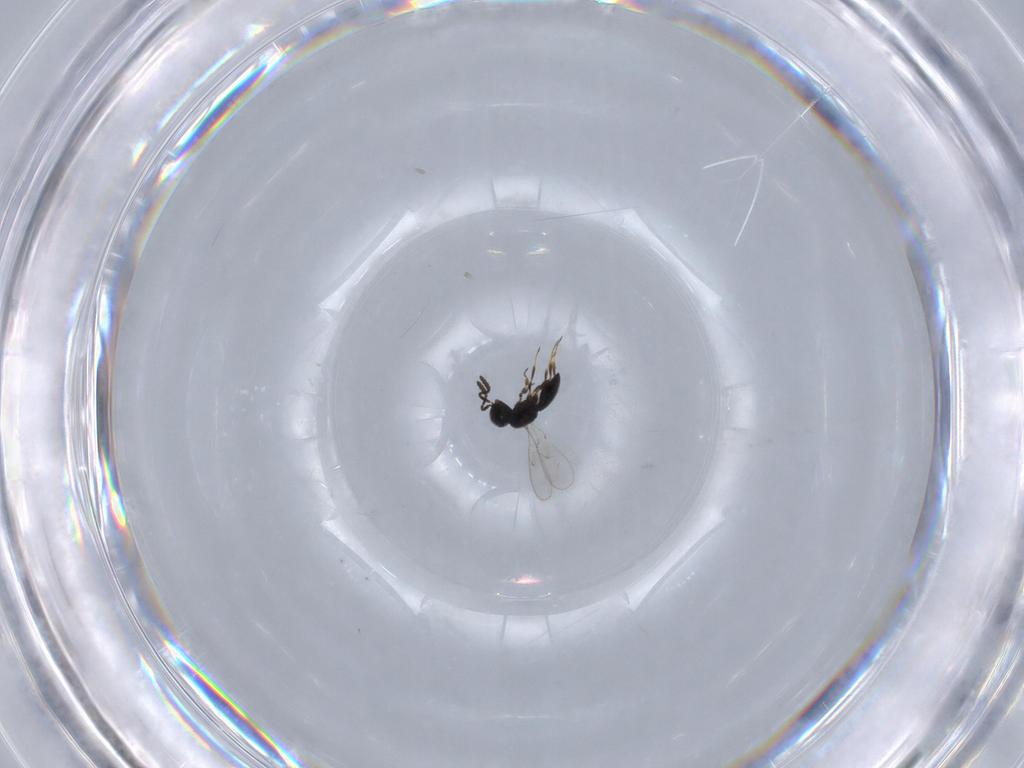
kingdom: Animalia
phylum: Arthropoda
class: Insecta
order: Hymenoptera
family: Scelionidae
